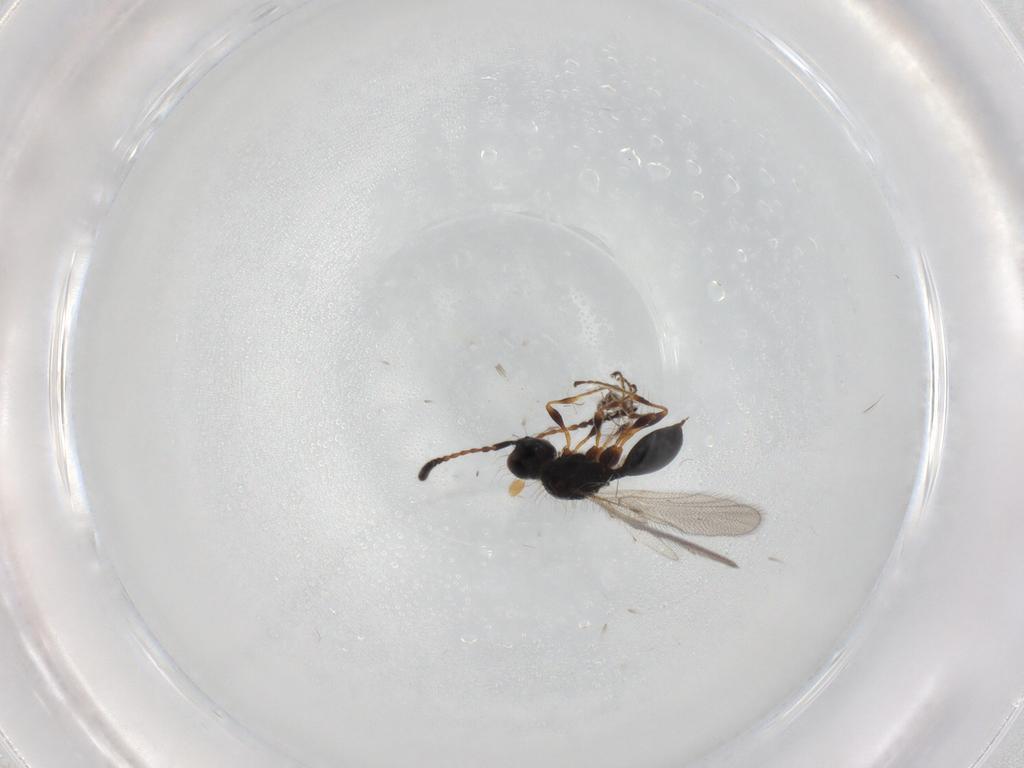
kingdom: Animalia
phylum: Arthropoda
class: Insecta
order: Hymenoptera
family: Diapriidae
